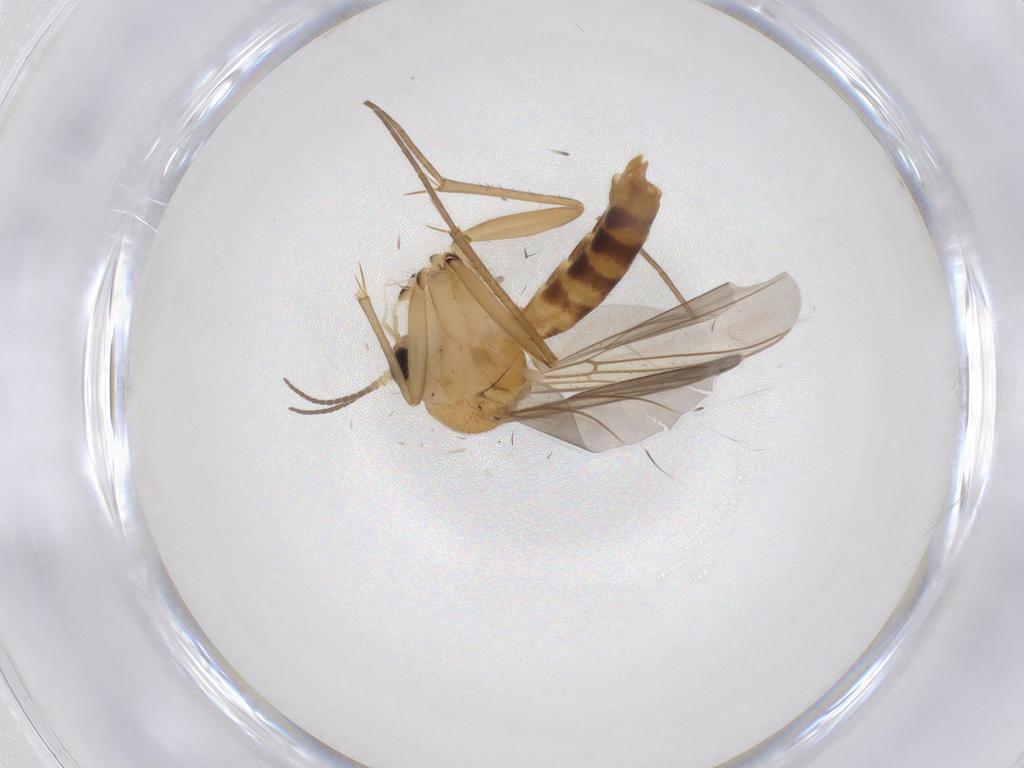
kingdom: Animalia
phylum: Arthropoda
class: Insecta
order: Diptera
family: Mycetophilidae
